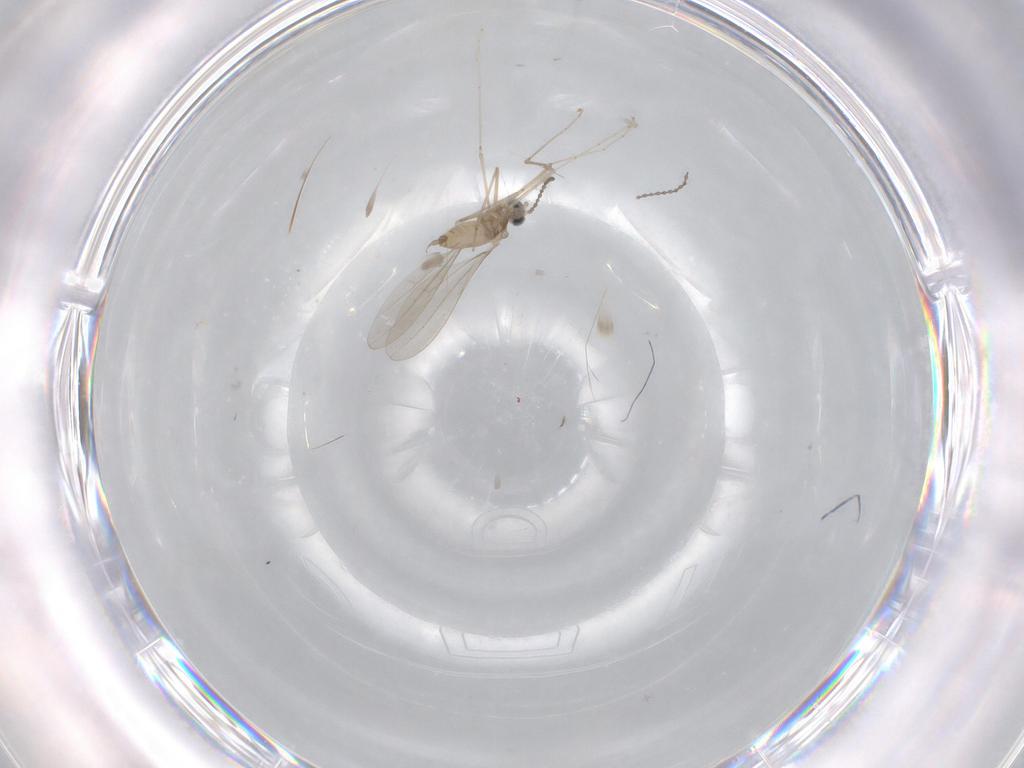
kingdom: Animalia
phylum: Arthropoda
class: Insecta
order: Diptera
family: Cecidomyiidae
